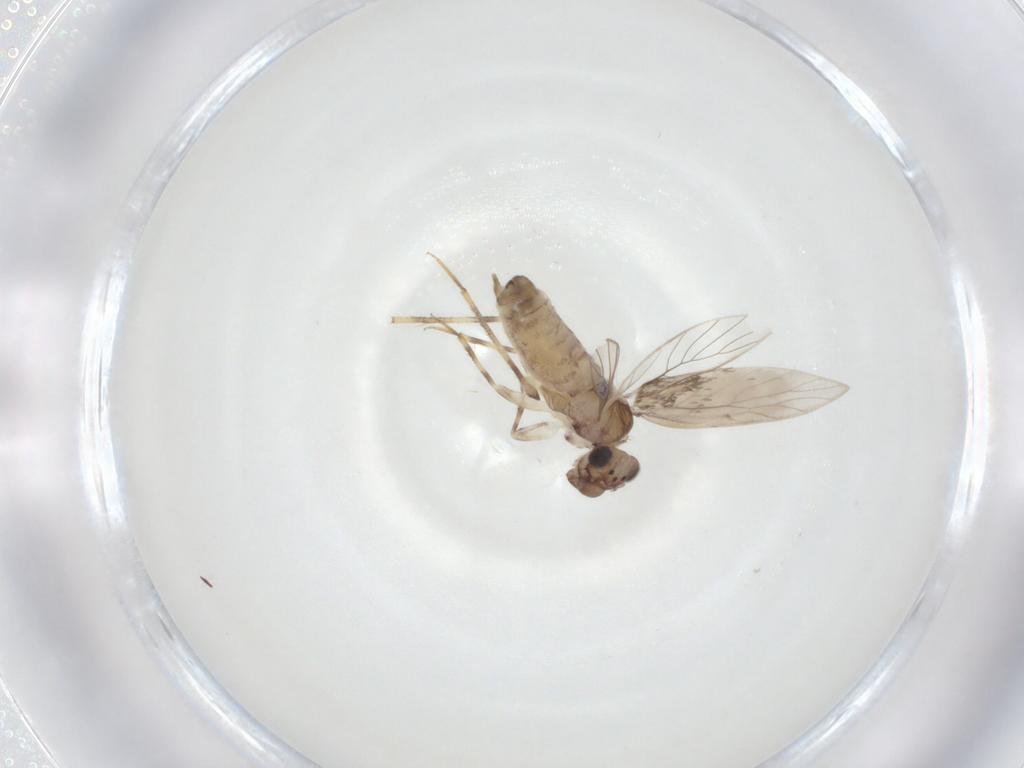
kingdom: Animalia
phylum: Arthropoda
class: Insecta
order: Psocodea
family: Lepidopsocidae
